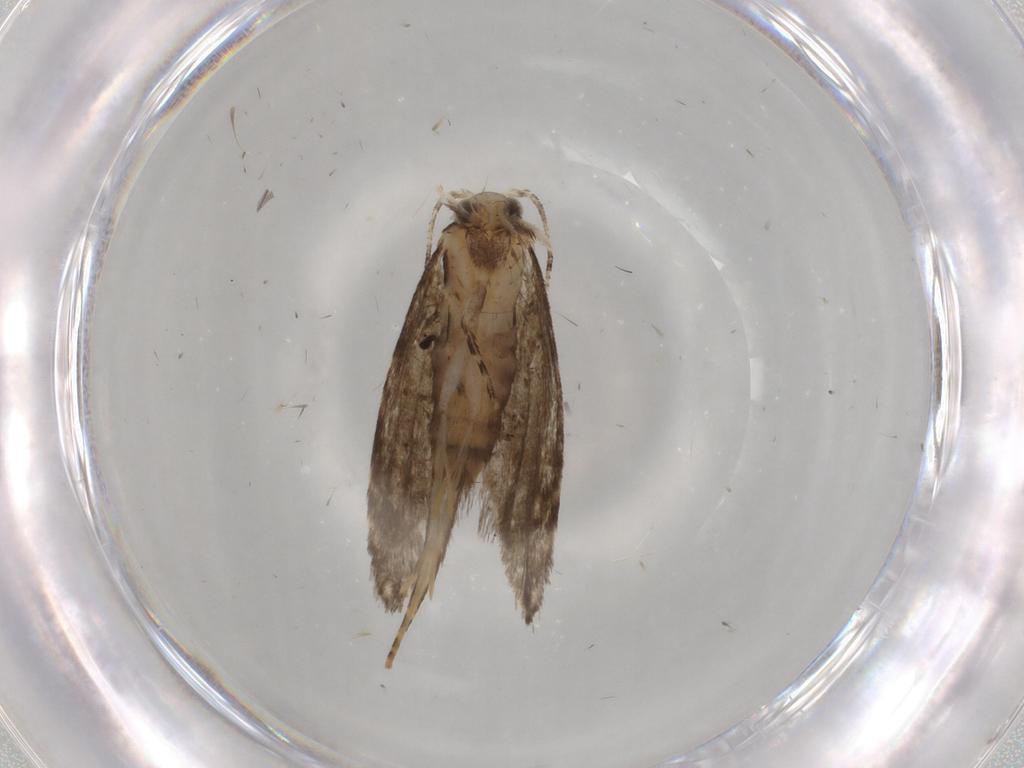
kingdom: Animalia
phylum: Arthropoda
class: Insecta
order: Lepidoptera
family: Tineidae
